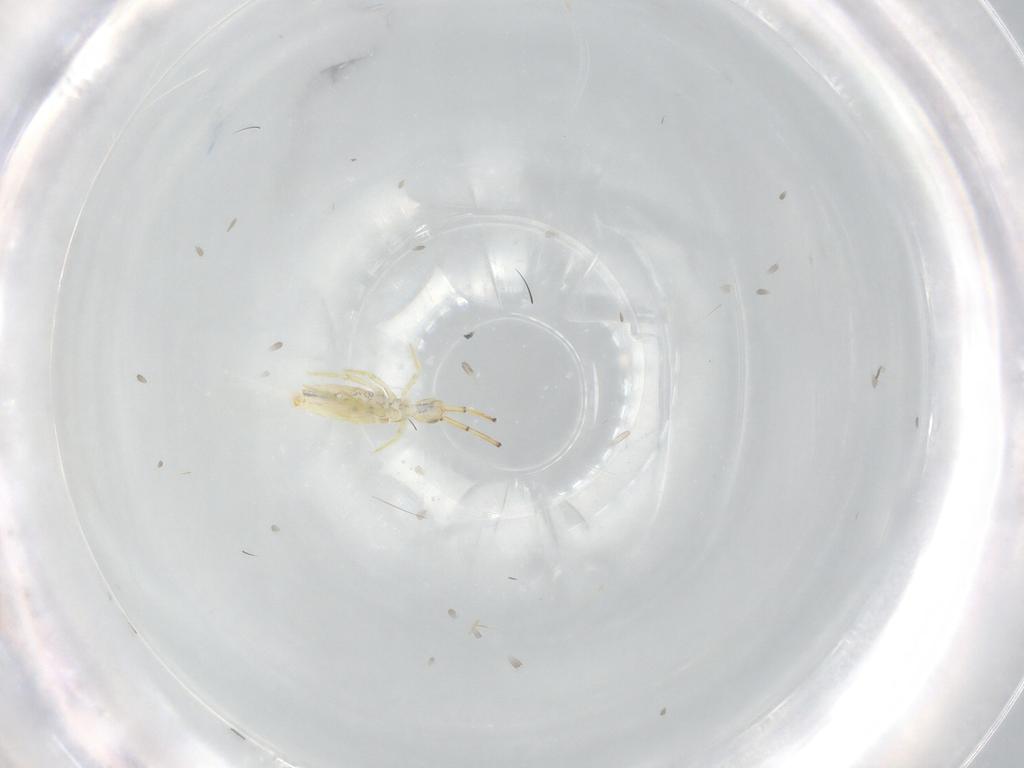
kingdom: Animalia
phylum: Arthropoda
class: Collembola
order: Entomobryomorpha
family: Paronellidae
